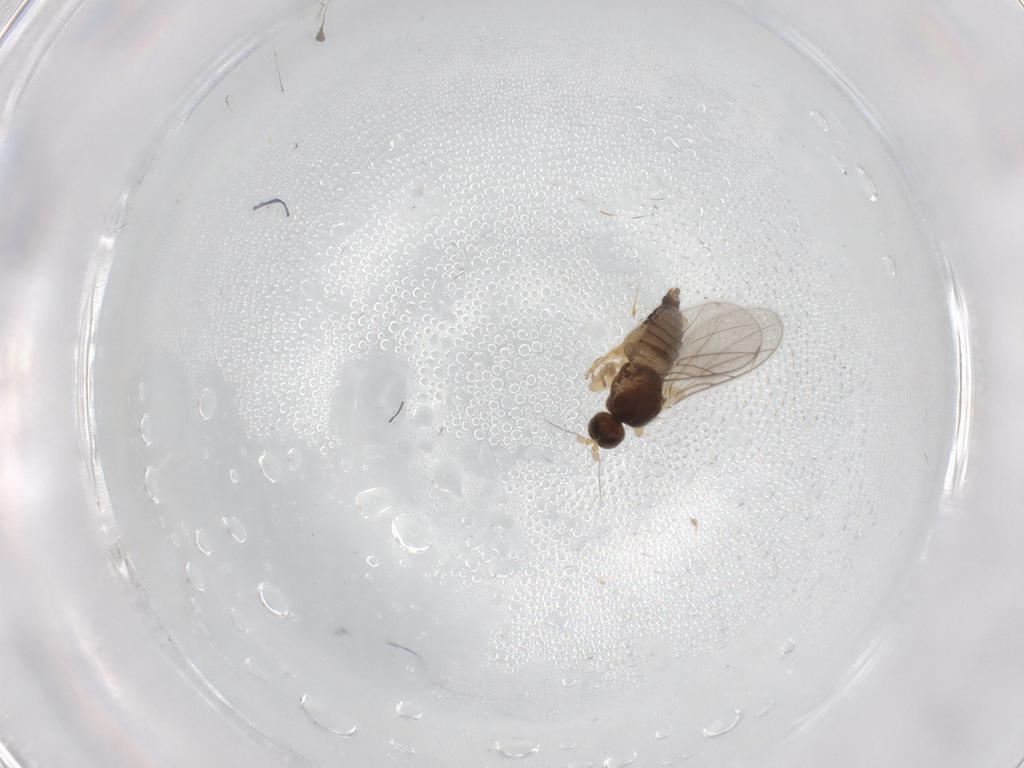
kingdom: Animalia
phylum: Arthropoda
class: Insecta
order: Diptera
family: Hybotidae
